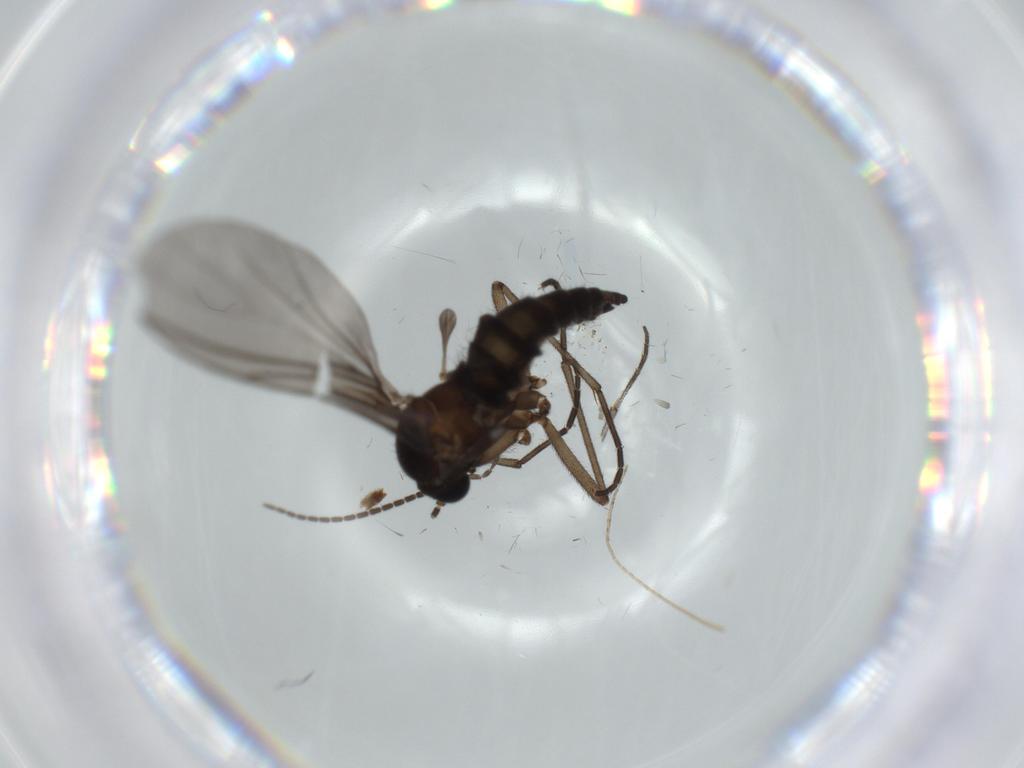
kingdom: Animalia
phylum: Arthropoda
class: Insecta
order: Diptera
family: Sciaridae
